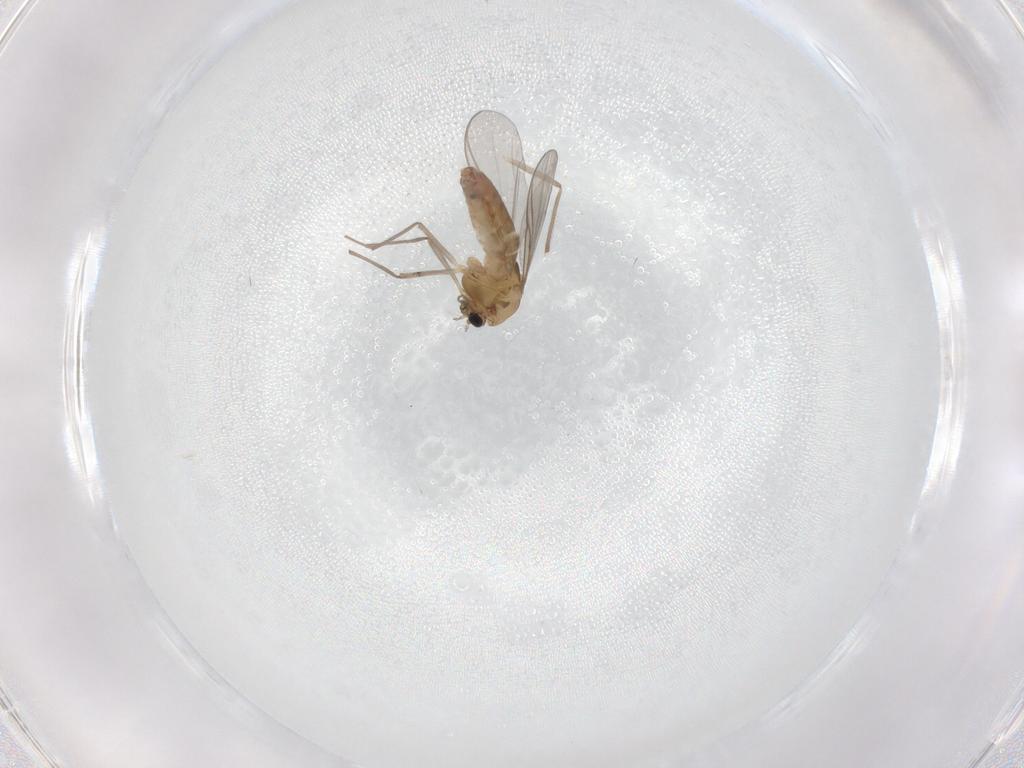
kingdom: Animalia
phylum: Arthropoda
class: Insecta
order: Diptera
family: Chironomidae
